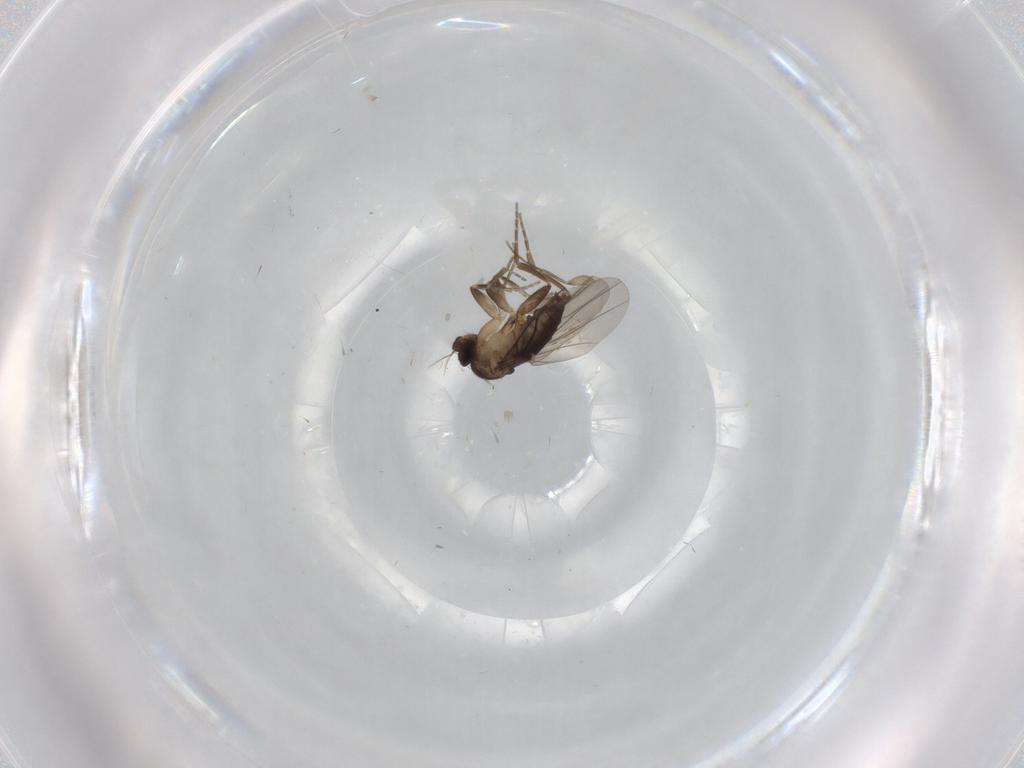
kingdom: Animalia
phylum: Arthropoda
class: Insecta
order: Diptera
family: Phoridae
